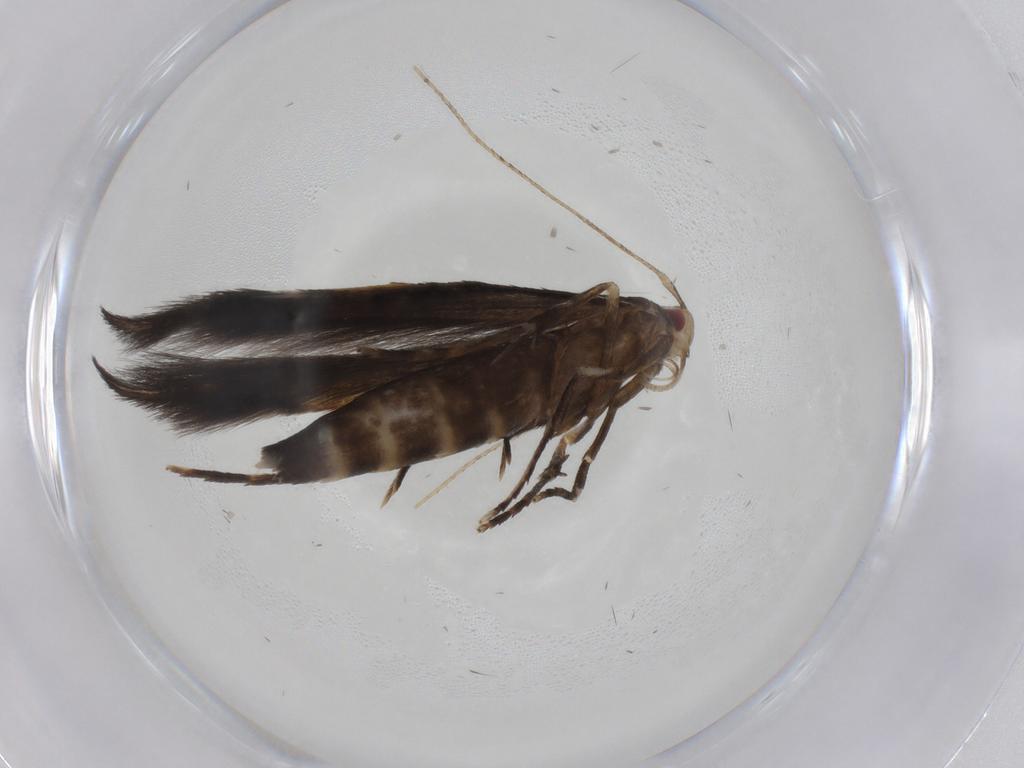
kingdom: Animalia
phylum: Arthropoda
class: Insecta
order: Lepidoptera
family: Cosmopterigidae
